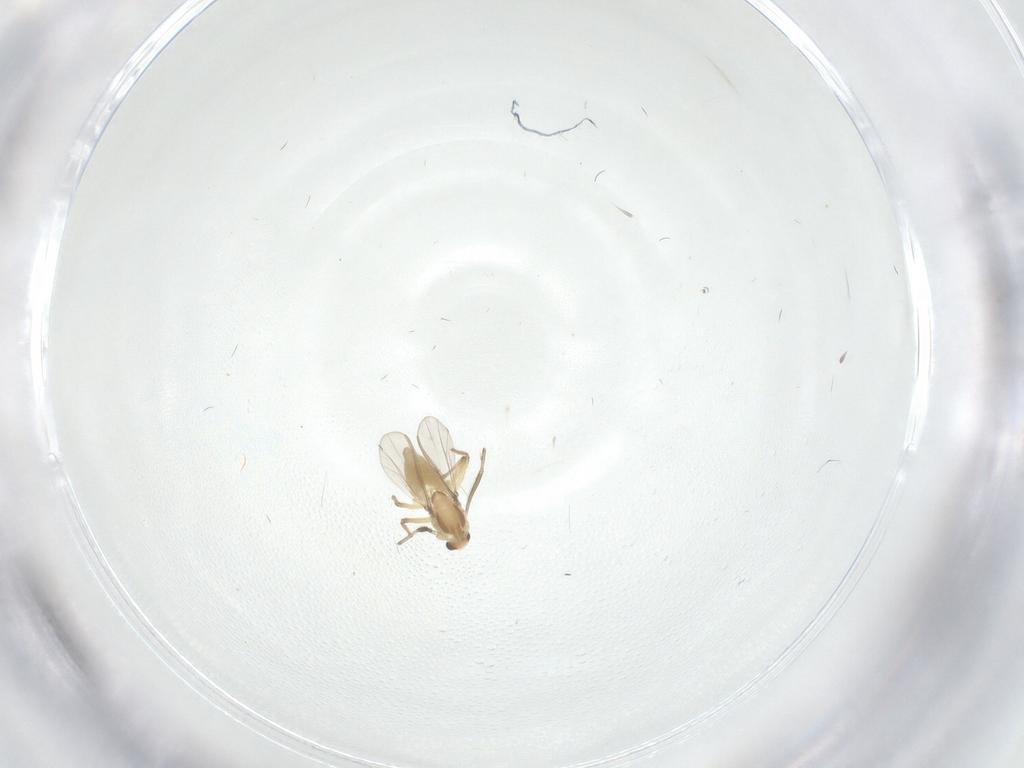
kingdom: Animalia
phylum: Arthropoda
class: Insecta
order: Diptera
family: Chironomidae
